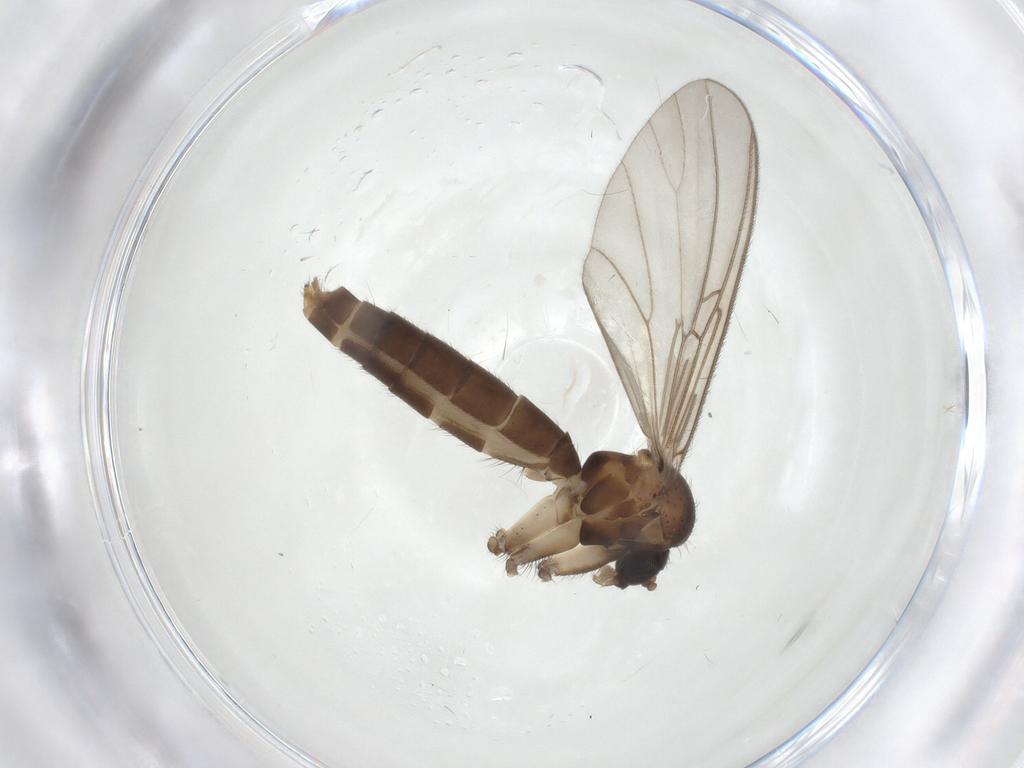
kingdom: Animalia
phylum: Arthropoda
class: Insecta
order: Diptera
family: Mycetophilidae
